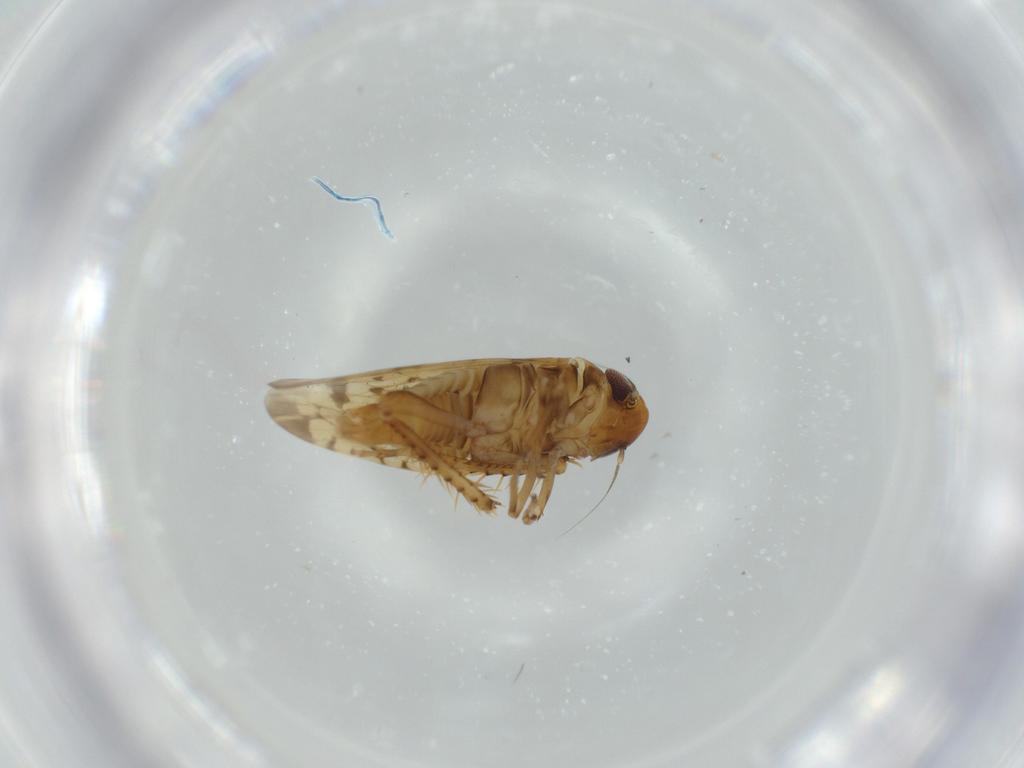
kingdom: Animalia
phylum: Arthropoda
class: Insecta
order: Hemiptera
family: Cicadellidae
